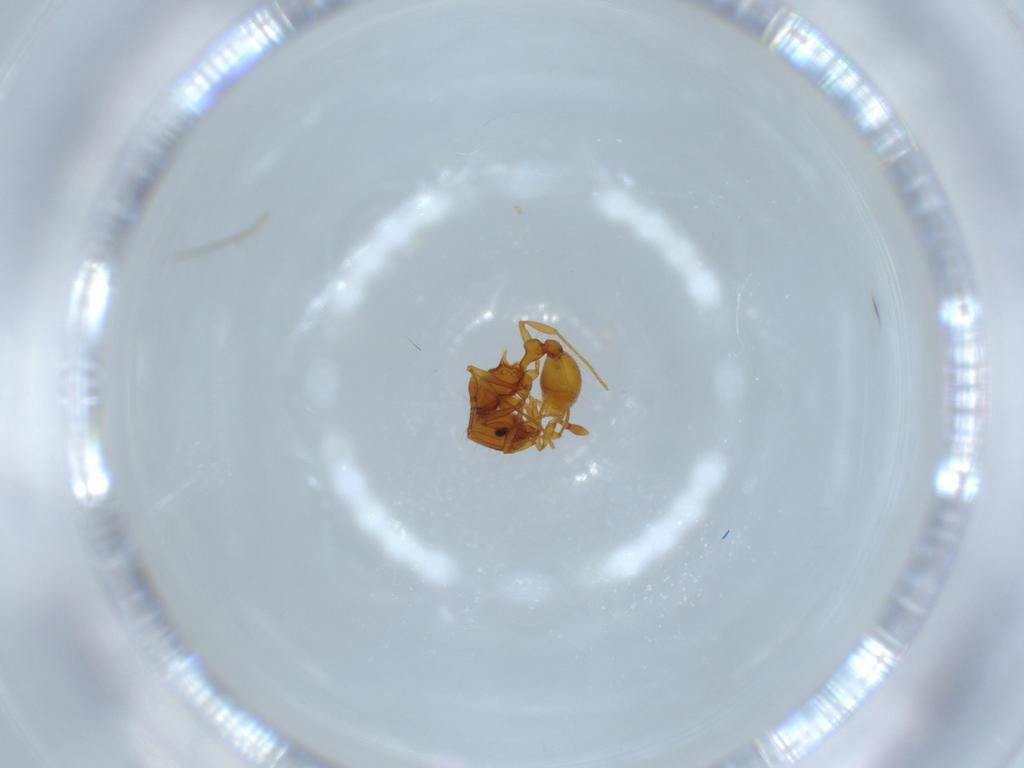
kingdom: Animalia
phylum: Arthropoda
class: Insecta
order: Hymenoptera
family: Formicidae
